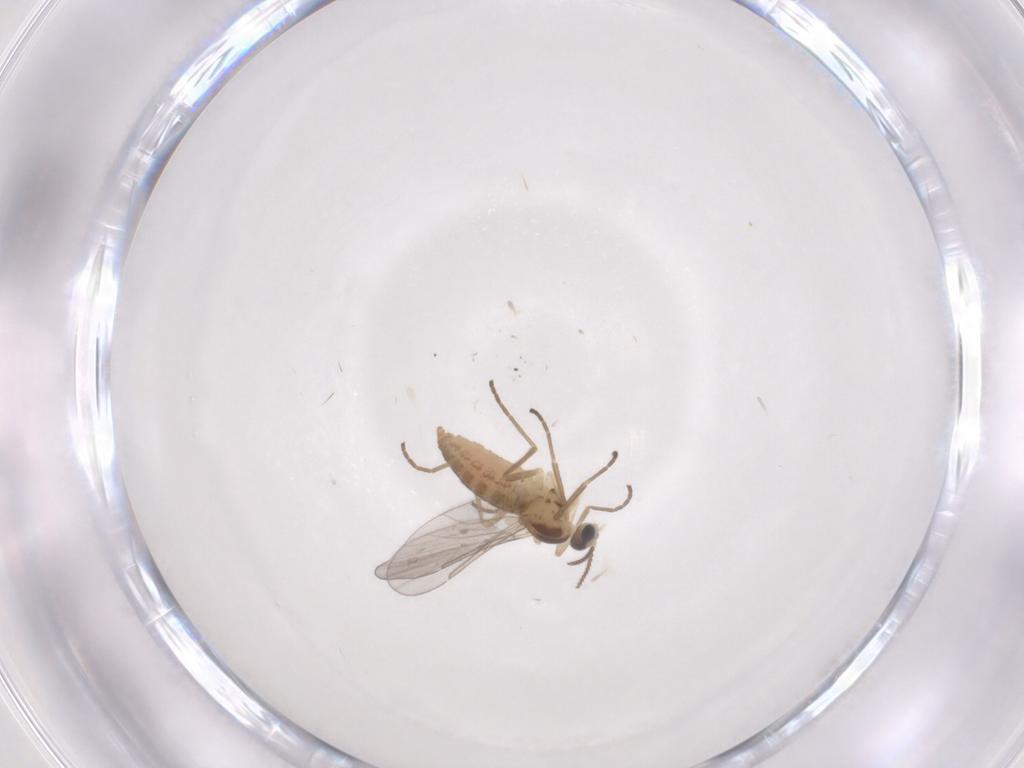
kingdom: Animalia
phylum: Arthropoda
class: Insecta
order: Diptera
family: Cecidomyiidae
